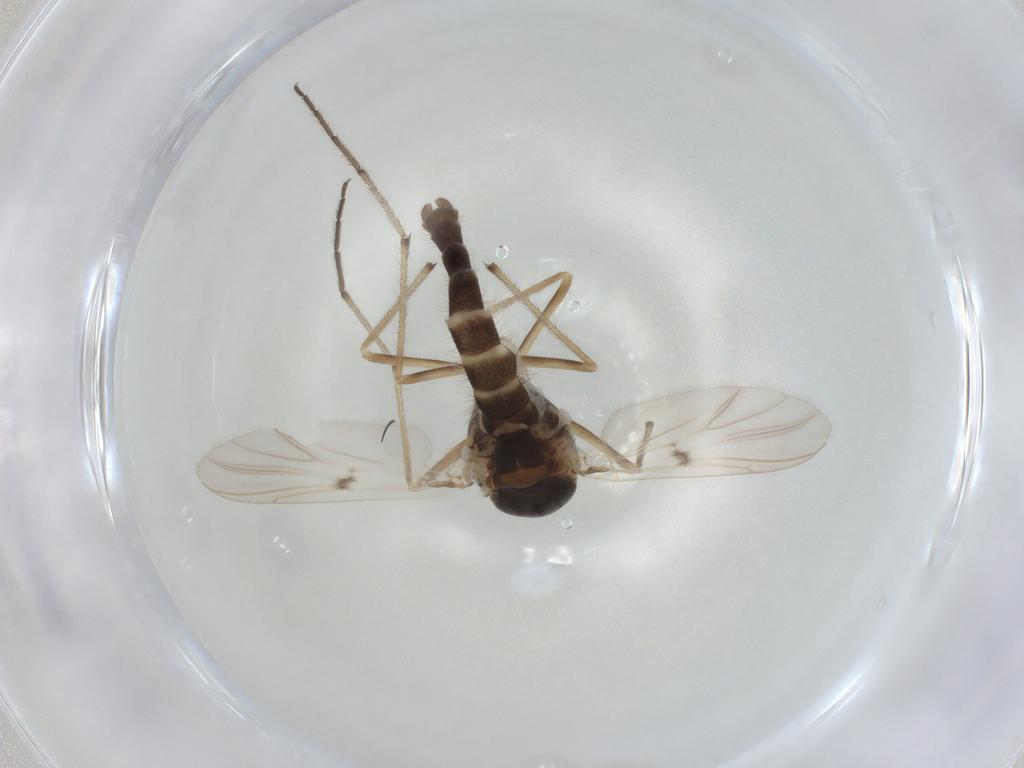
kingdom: Animalia
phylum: Arthropoda
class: Insecta
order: Diptera
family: Chironomidae
